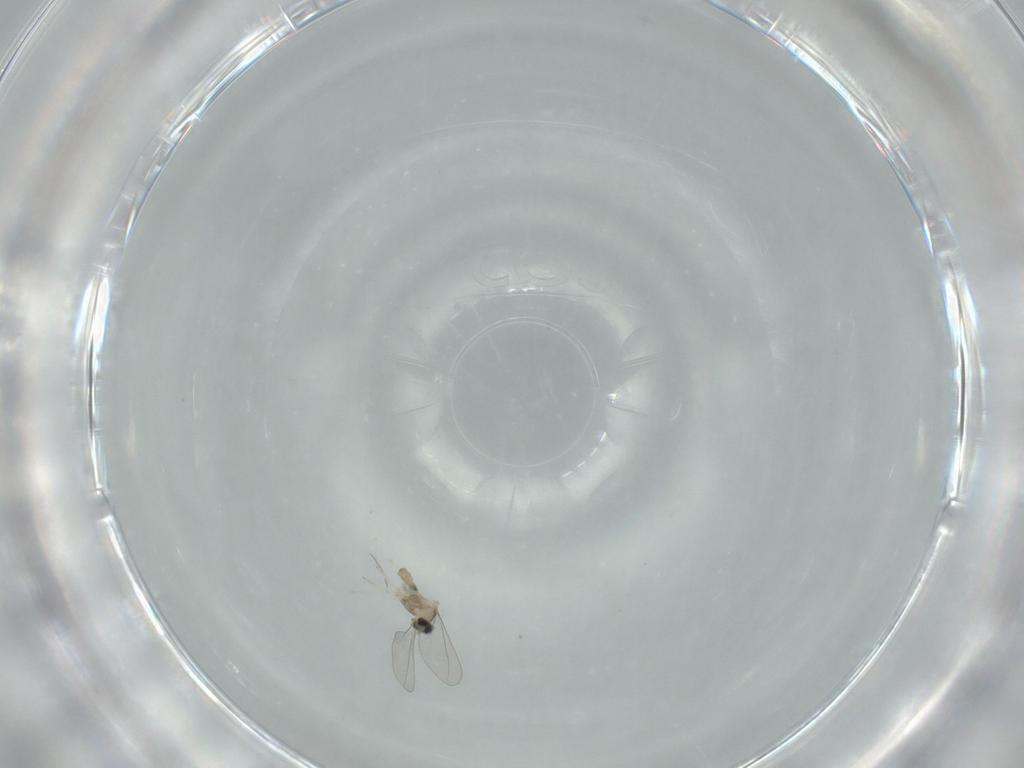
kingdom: Animalia
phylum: Arthropoda
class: Insecta
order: Diptera
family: Cecidomyiidae
